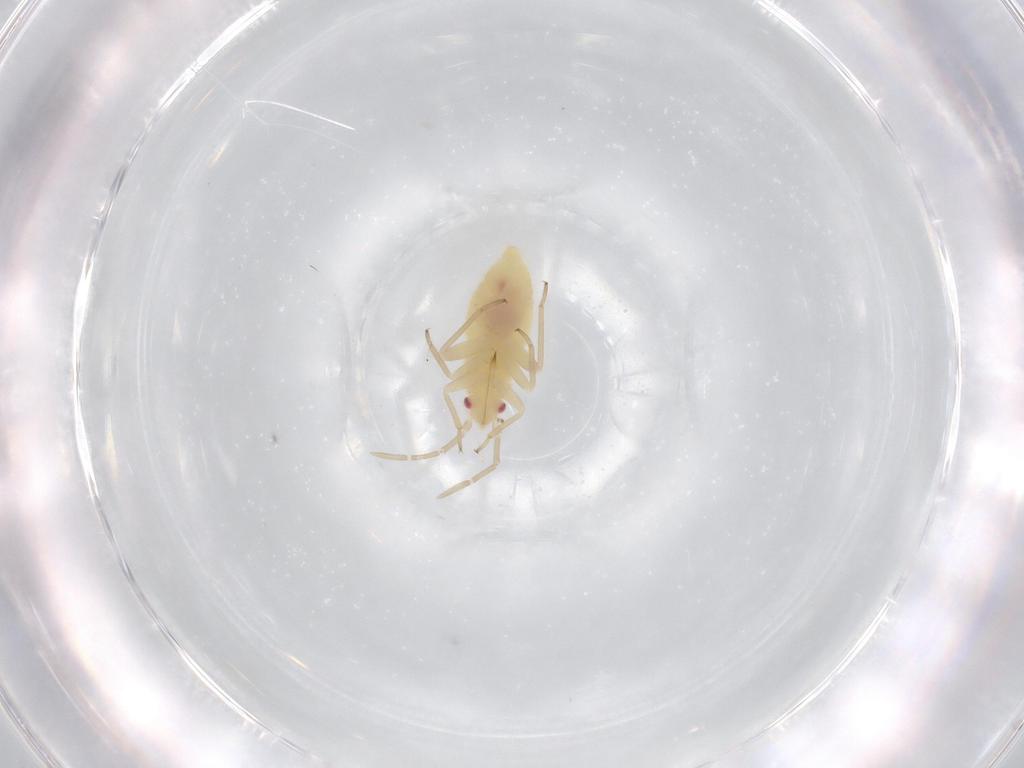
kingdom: Animalia
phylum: Arthropoda
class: Insecta
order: Hemiptera
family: Miridae
